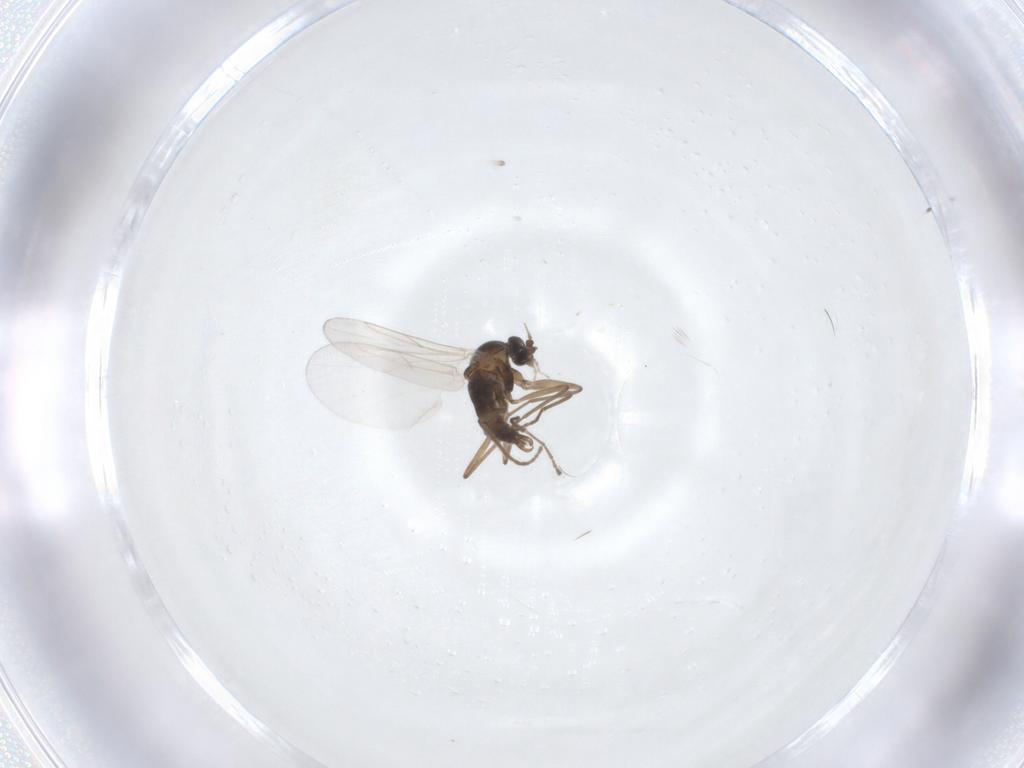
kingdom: Animalia
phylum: Arthropoda
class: Insecta
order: Diptera
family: Cecidomyiidae
